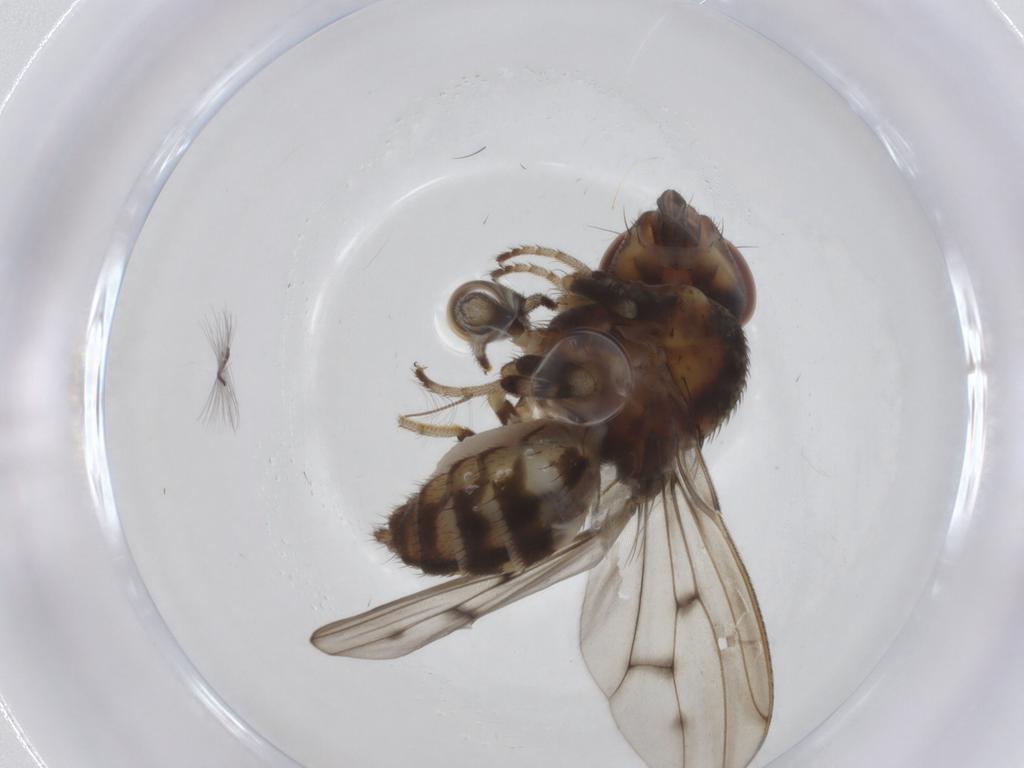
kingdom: Animalia
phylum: Arthropoda
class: Insecta
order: Diptera
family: Drosophilidae
